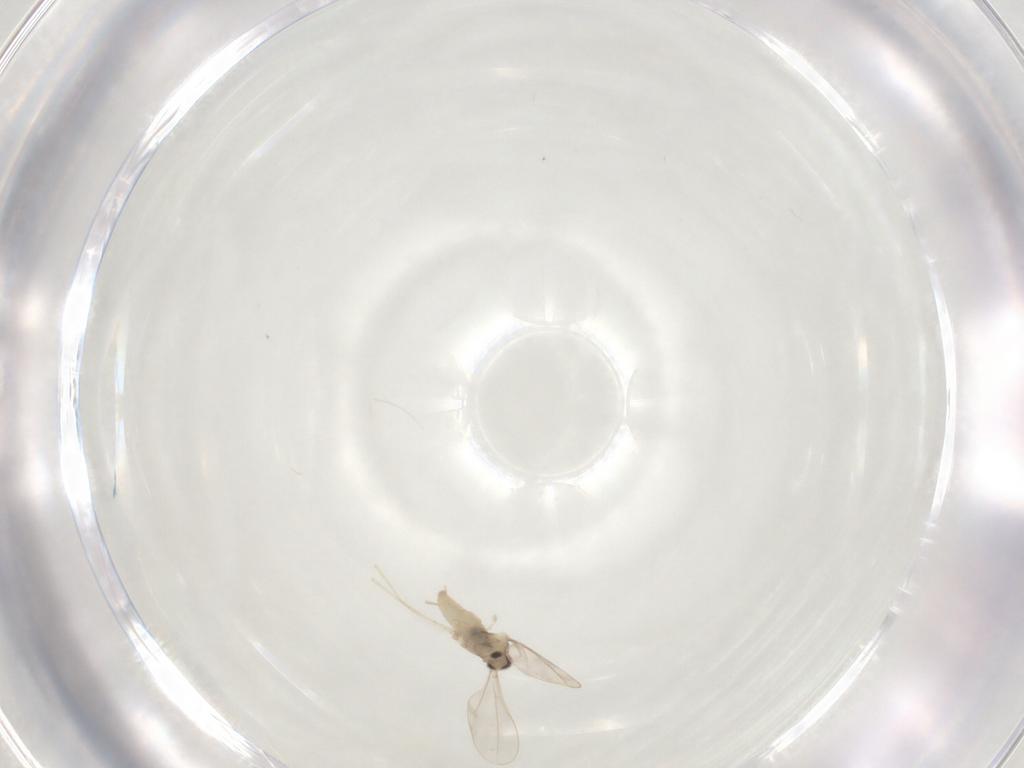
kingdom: Animalia
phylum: Arthropoda
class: Insecta
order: Diptera
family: Cecidomyiidae
